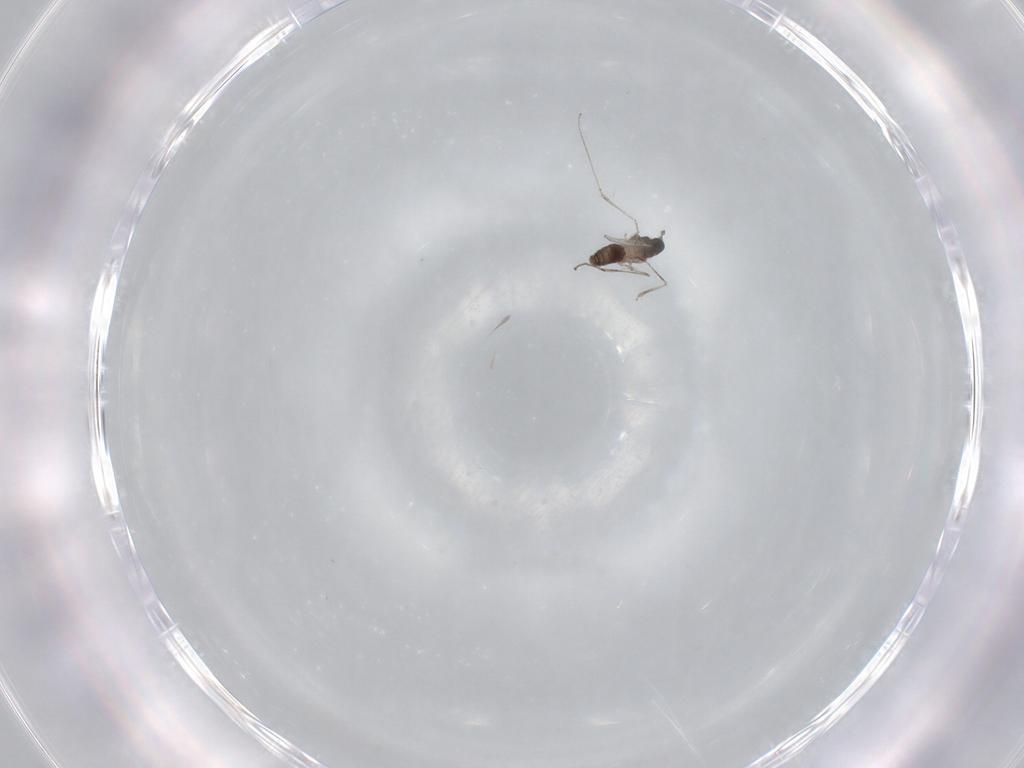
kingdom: Animalia
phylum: Arthropoda
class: Insecta
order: Diptera
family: Cecidomyiidae
